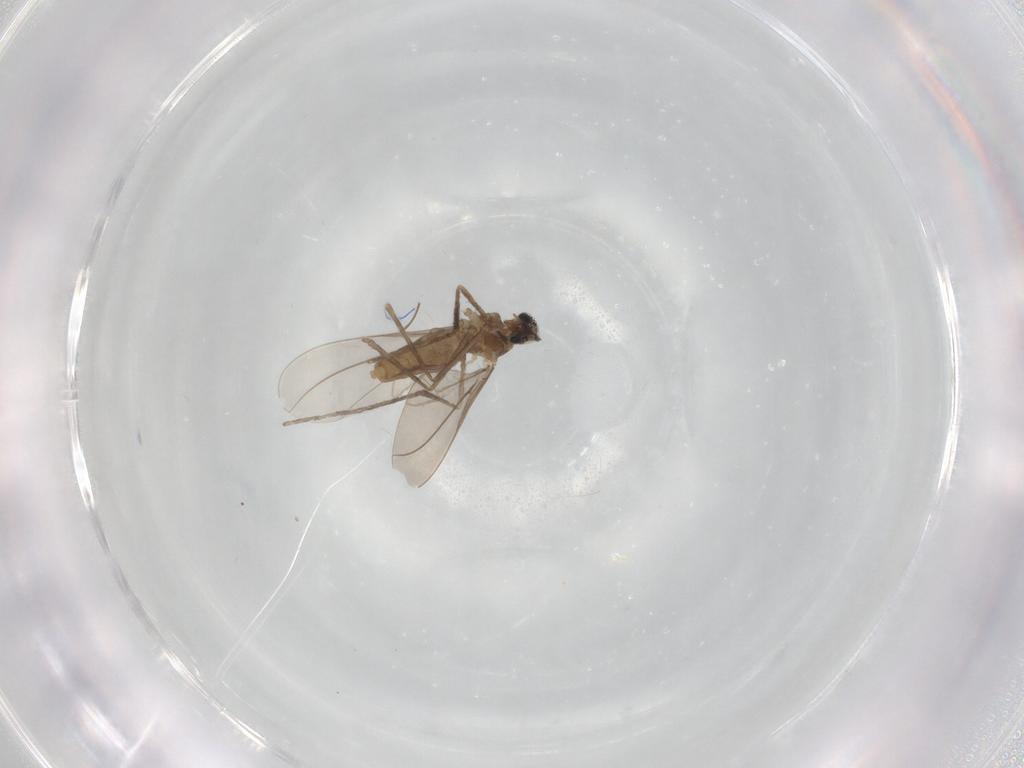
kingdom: Animalia
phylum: Arthropoda
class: Insecta
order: Diptera
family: Cecidomyiidae
